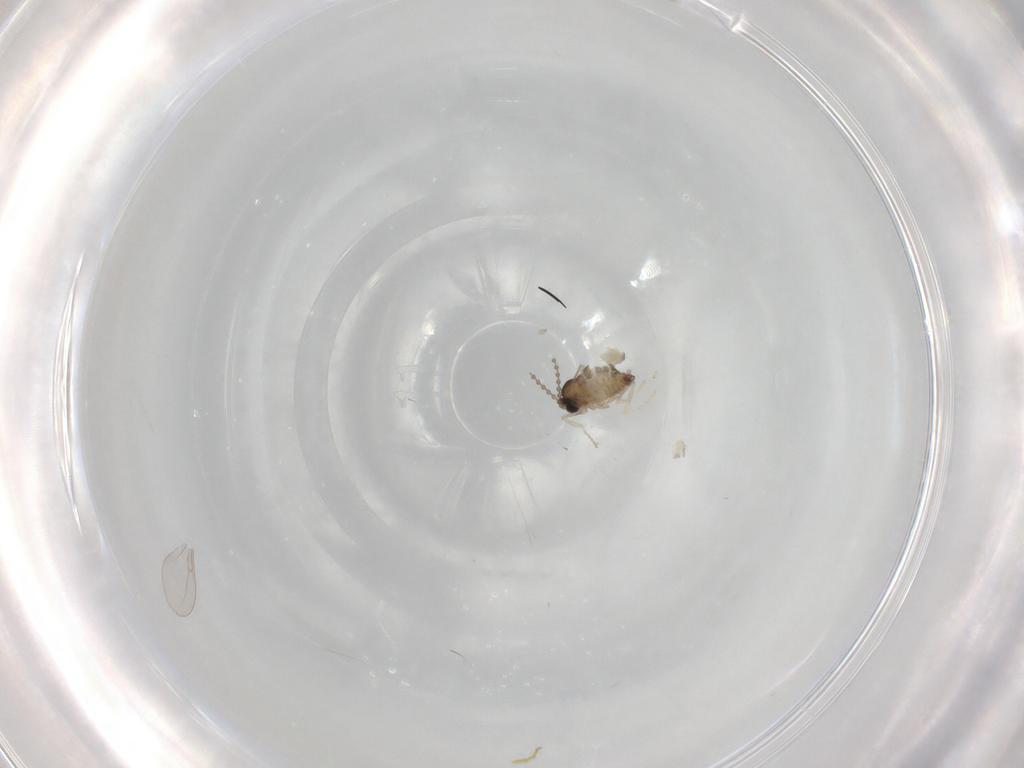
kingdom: Animalia
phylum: Arthropoda
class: Insecta
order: Diptera
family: Cecidomyiidae
